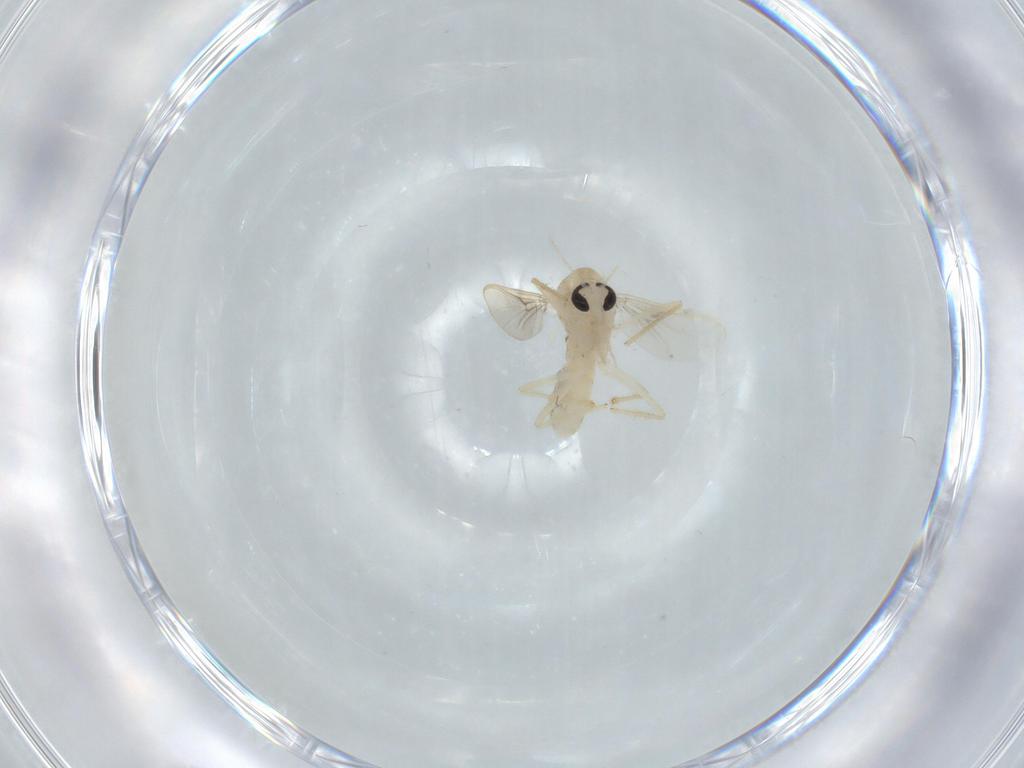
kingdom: Animalia
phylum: Arthropoda
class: Insecta
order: Diptera
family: Chironomidae
